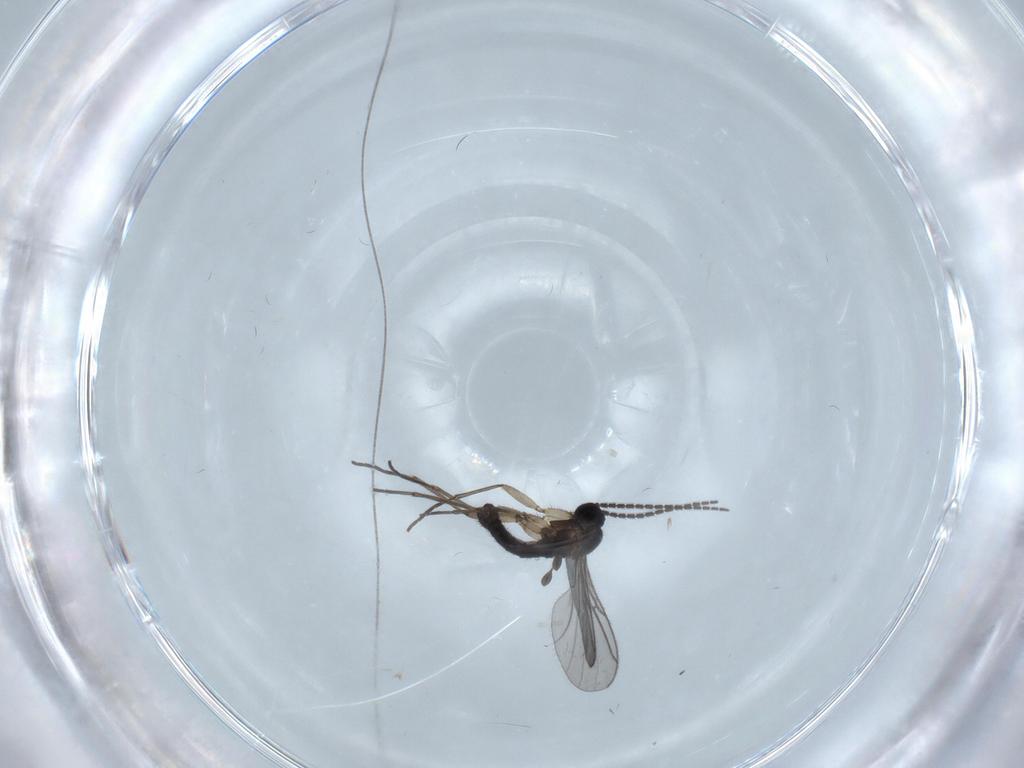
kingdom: Animalia
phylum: Arthropoda
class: Insecta
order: Diptera
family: Sciaridae
